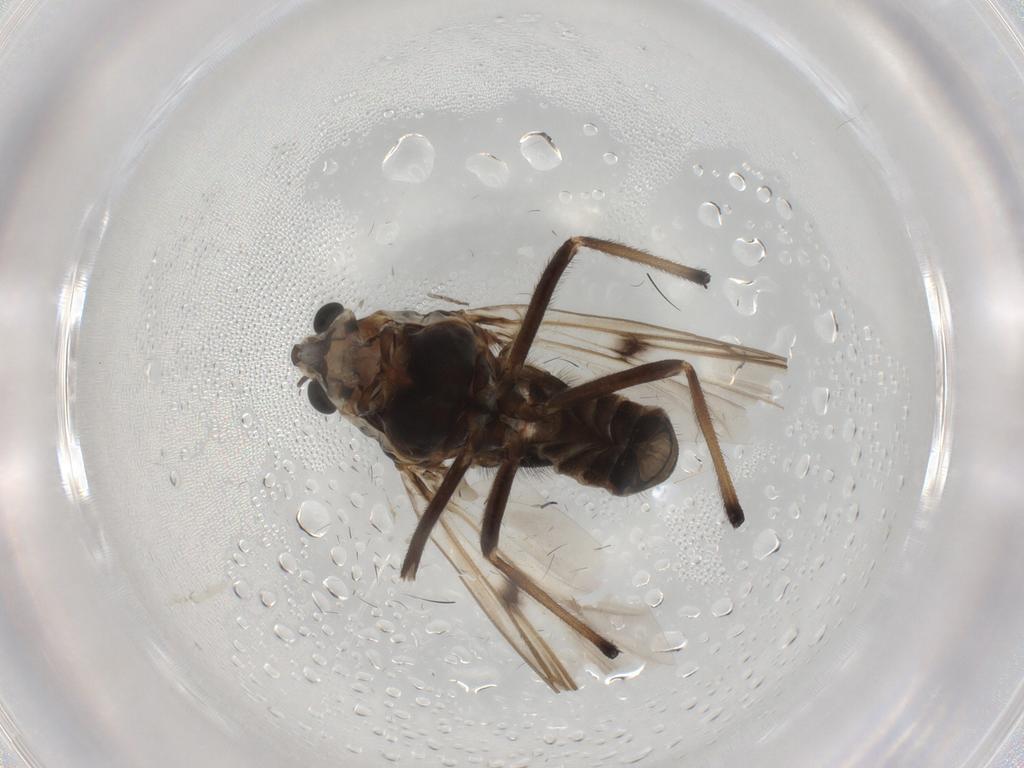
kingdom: Animalia
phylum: Arthropoda
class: Insecta
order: Diptera
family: Chironomidae
